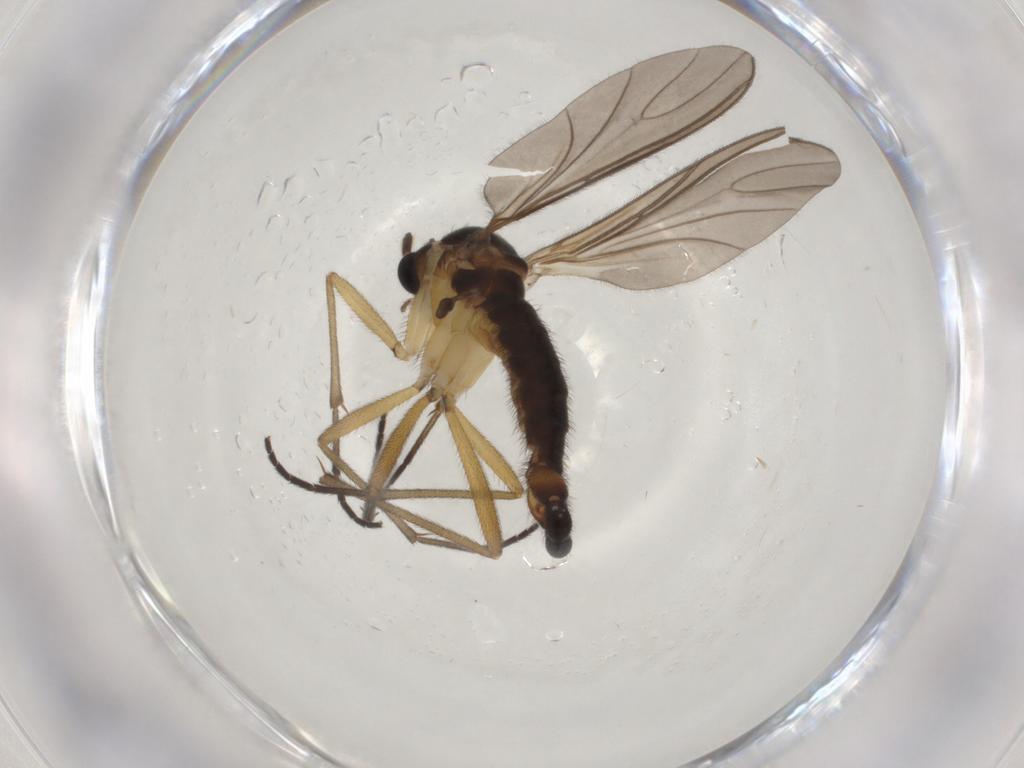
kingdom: Animalia
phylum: Arthropoda
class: Insecta
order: Diptera
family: Sciaridae
